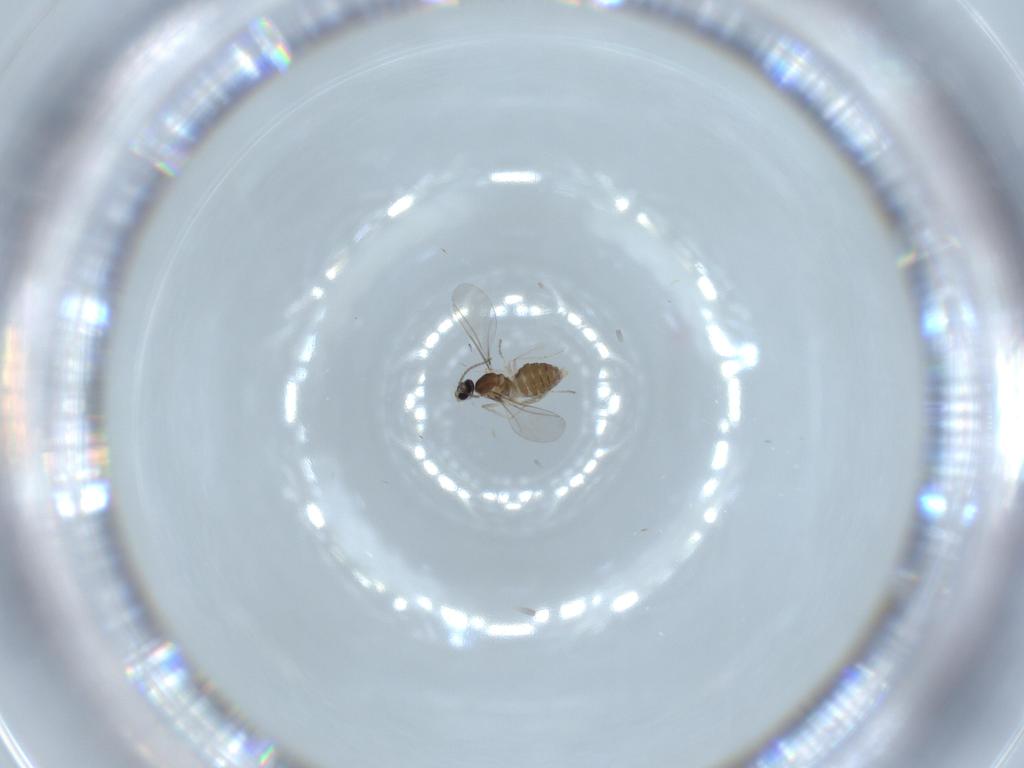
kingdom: Animalia
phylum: Arthropoda
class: Insecta
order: Diptera
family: Cecidomyiidae
